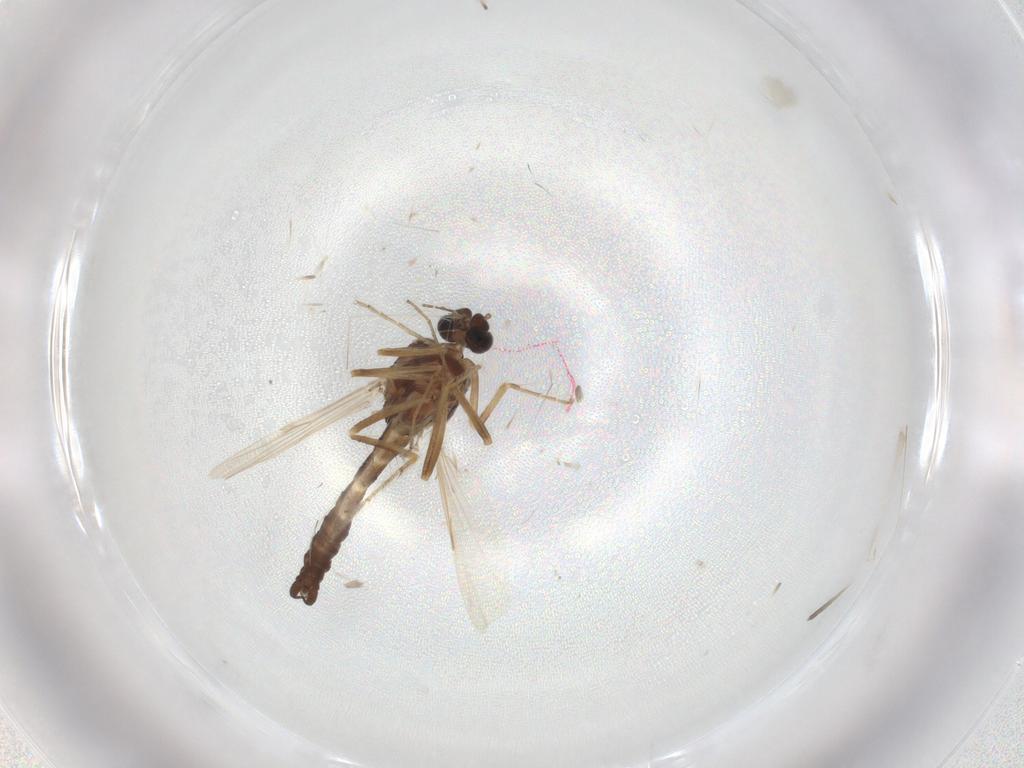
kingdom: Animalia
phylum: Arthropoda
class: Insecta
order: Diptera
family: Ceratopogonidae
